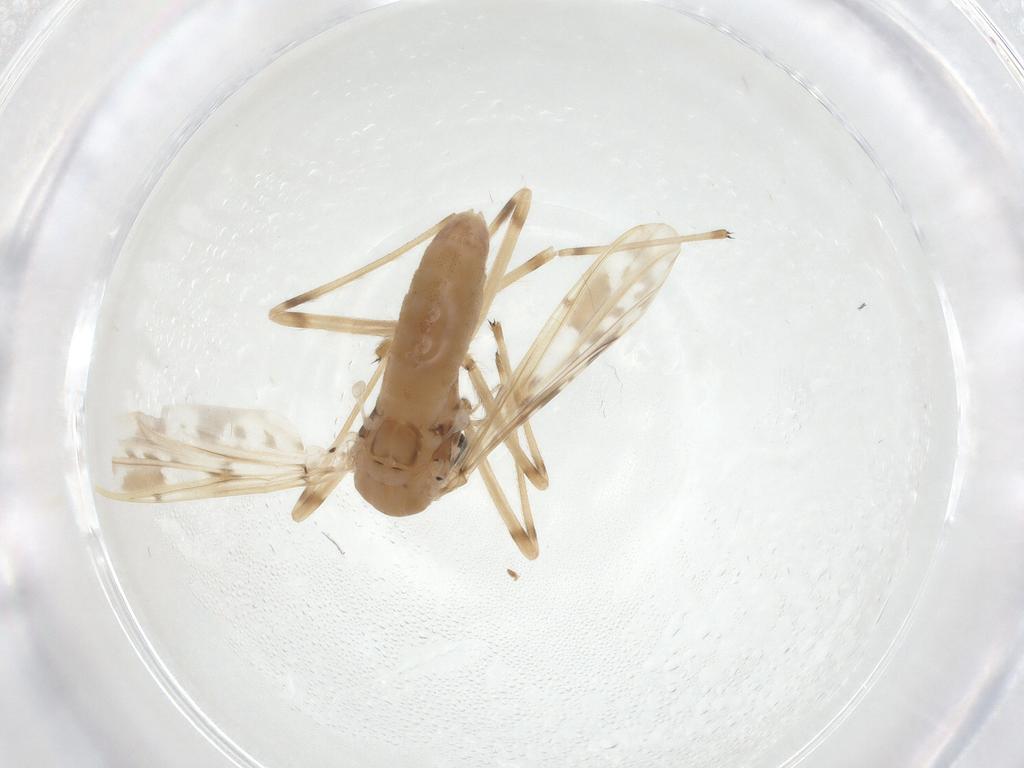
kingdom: Animalia
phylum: Arthropoda
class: Insecta
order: Diptera
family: Chironomidae
